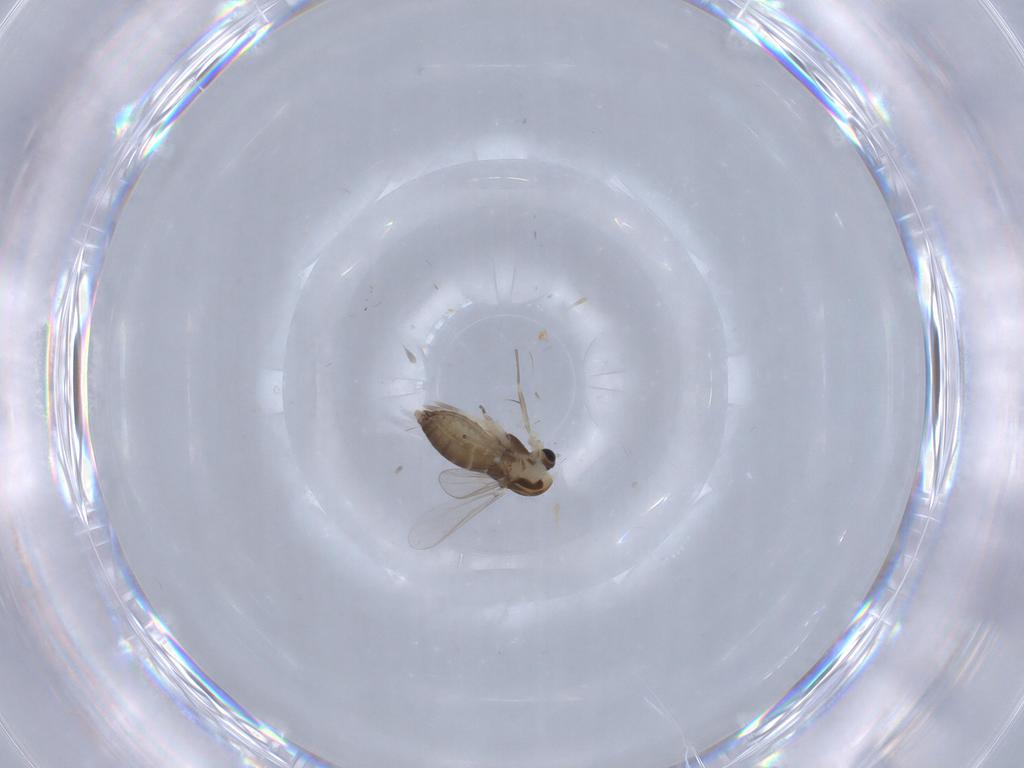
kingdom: Animalia
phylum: Arthropoda
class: Insecta
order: Diptera
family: Chironomidae
